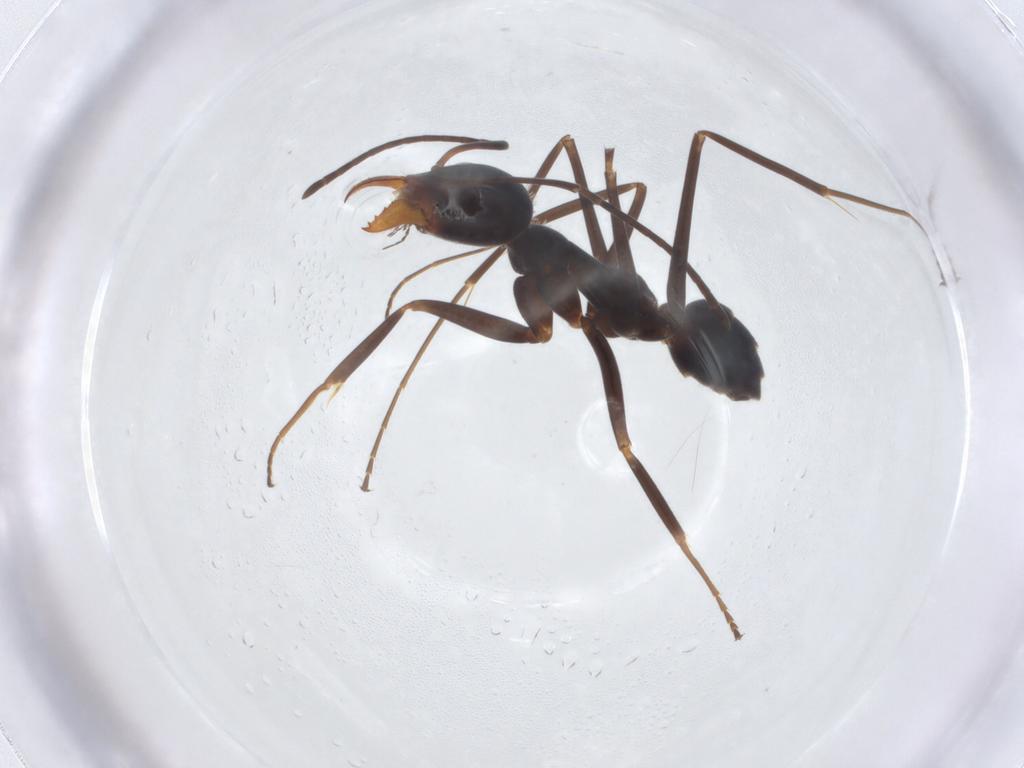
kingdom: Animalia
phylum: Arthropoda
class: Insecta
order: Hymenoptera
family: Formicidae
